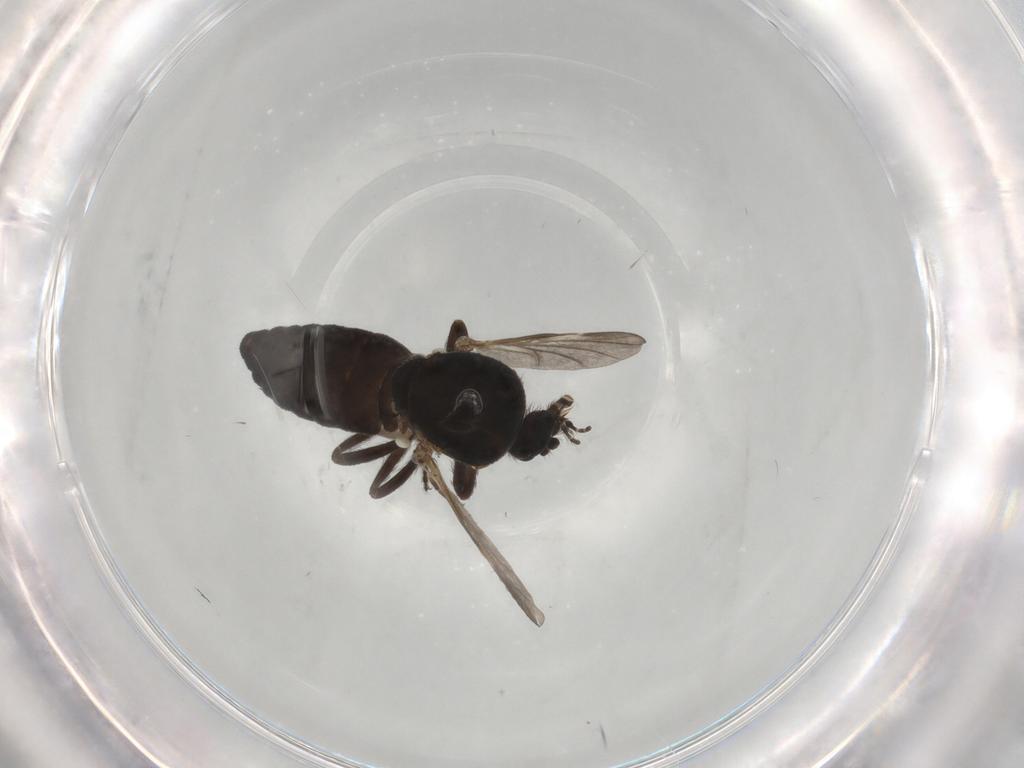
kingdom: Animalia
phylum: Arthropoda
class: Insecta
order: Diptera
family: Ceratopogonidae
